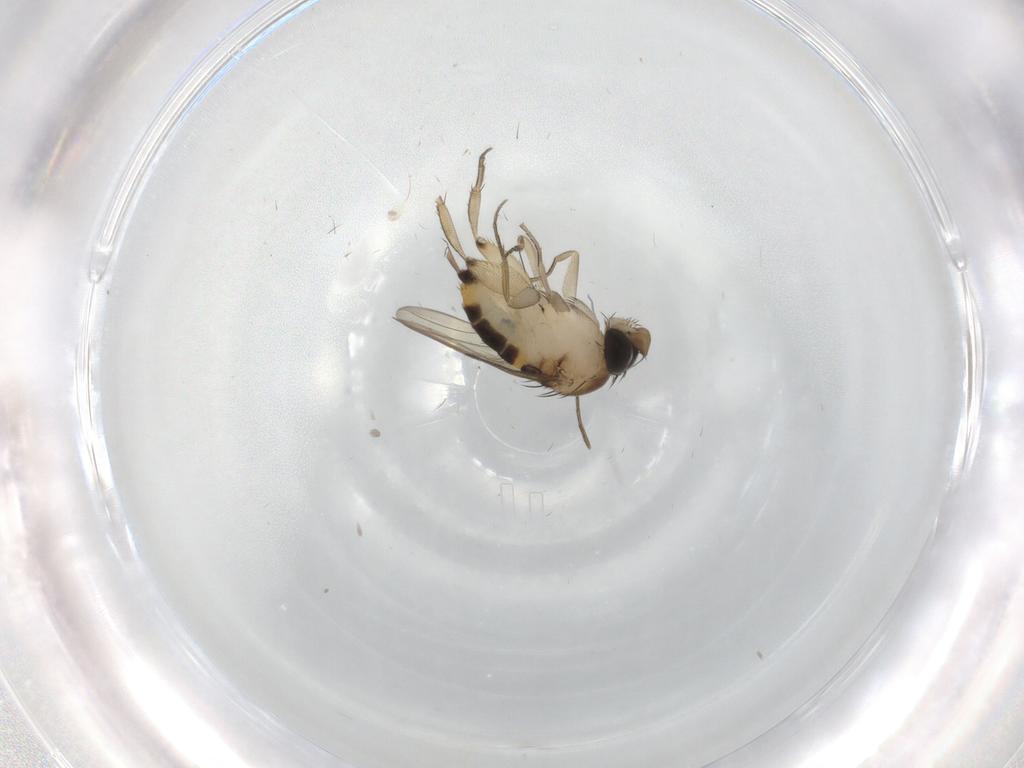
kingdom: Animalia
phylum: Arthropoda
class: Insecta
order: Diptera
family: Phoridae
